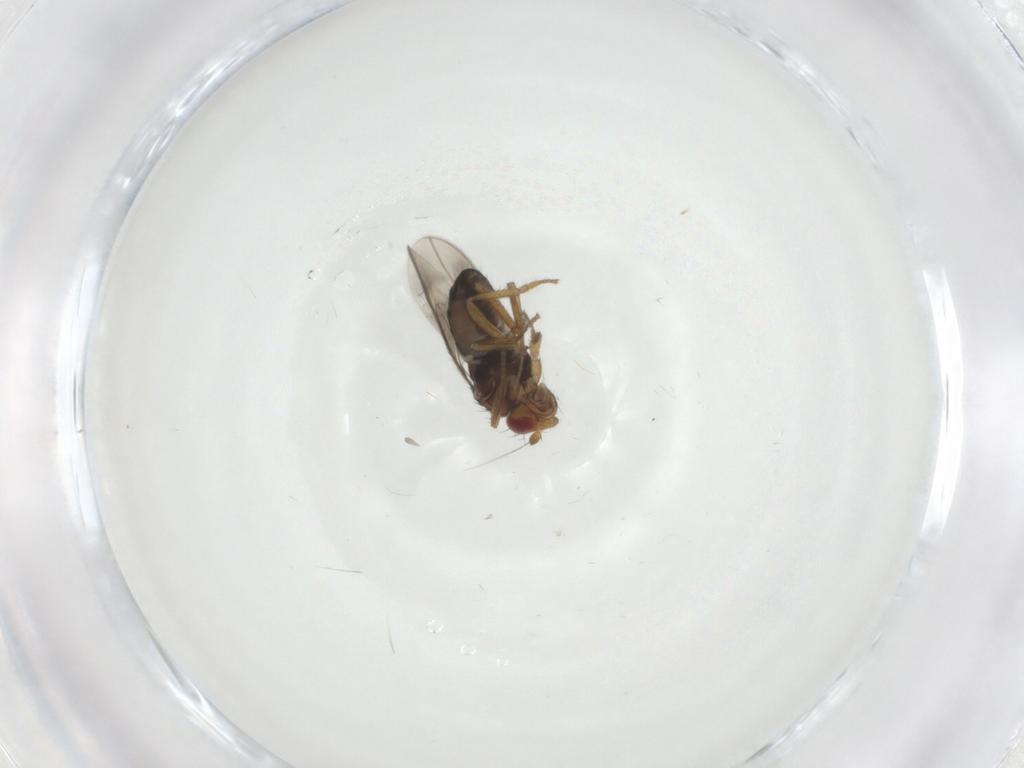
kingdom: Animalia
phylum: Arthropoda
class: Insecta
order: Diptera
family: Sphaeroceridae
